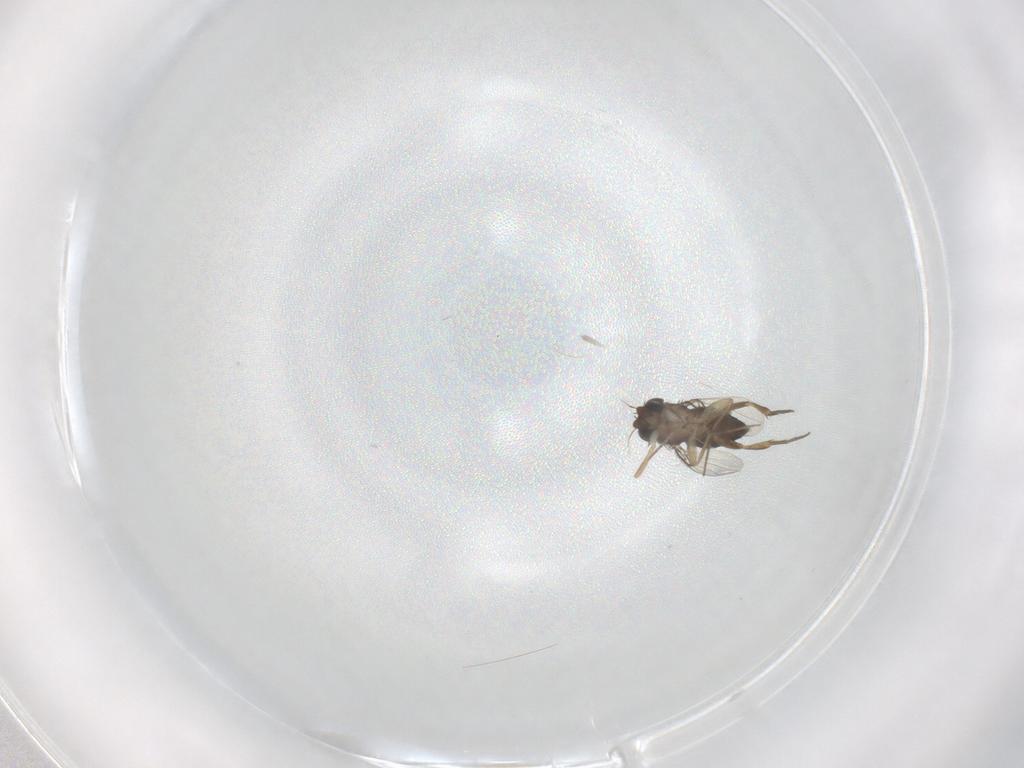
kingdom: Animalia
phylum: Arthropoda
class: Insecta
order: Diptera
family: Phoridae
